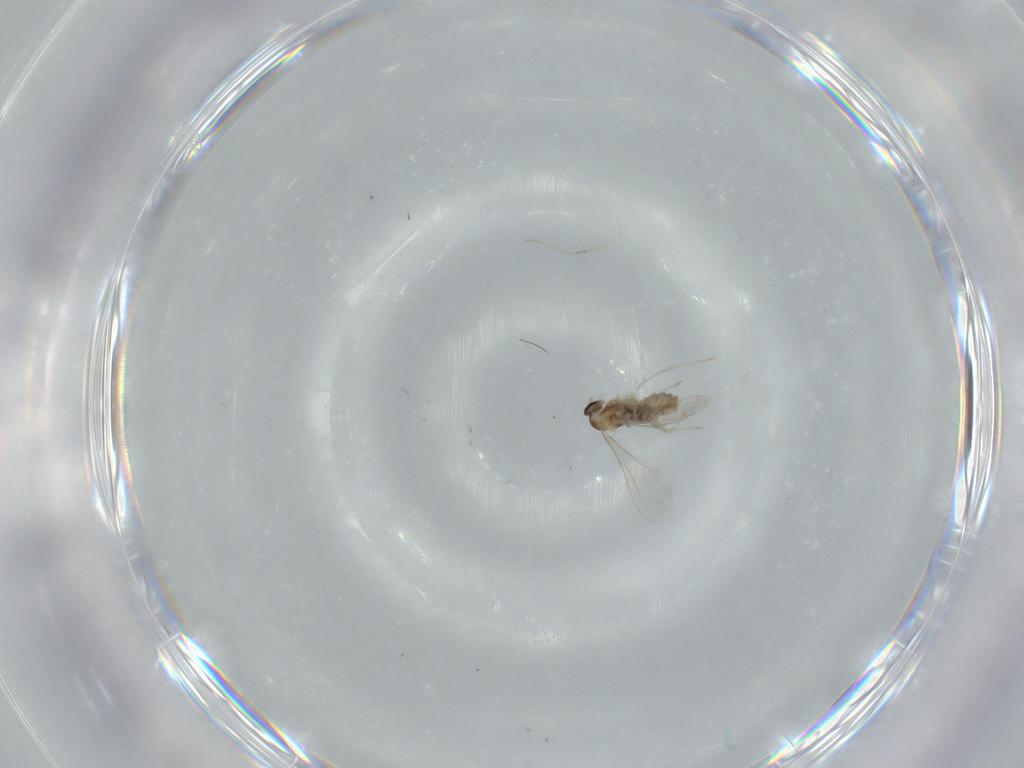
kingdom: Animalia
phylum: Arthropoda
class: Insecta
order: Diptera
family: Cecidomyiidae
